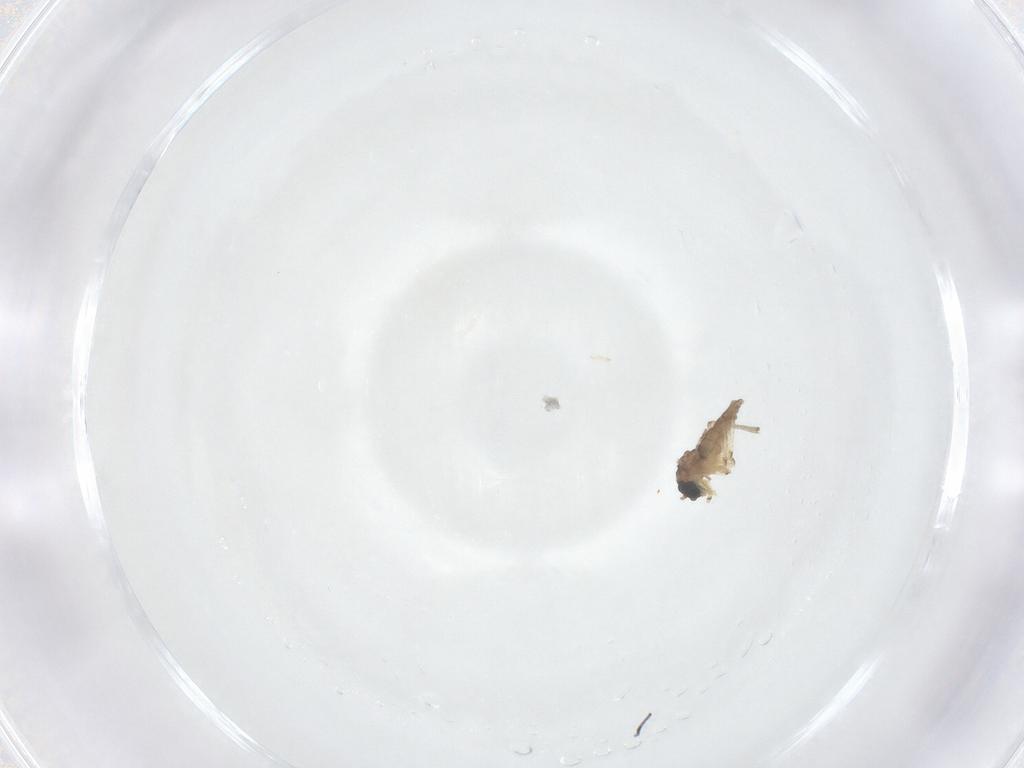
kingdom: Animalia
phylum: Arthropoda
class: Insecta
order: Diptera
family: Sciaridae
